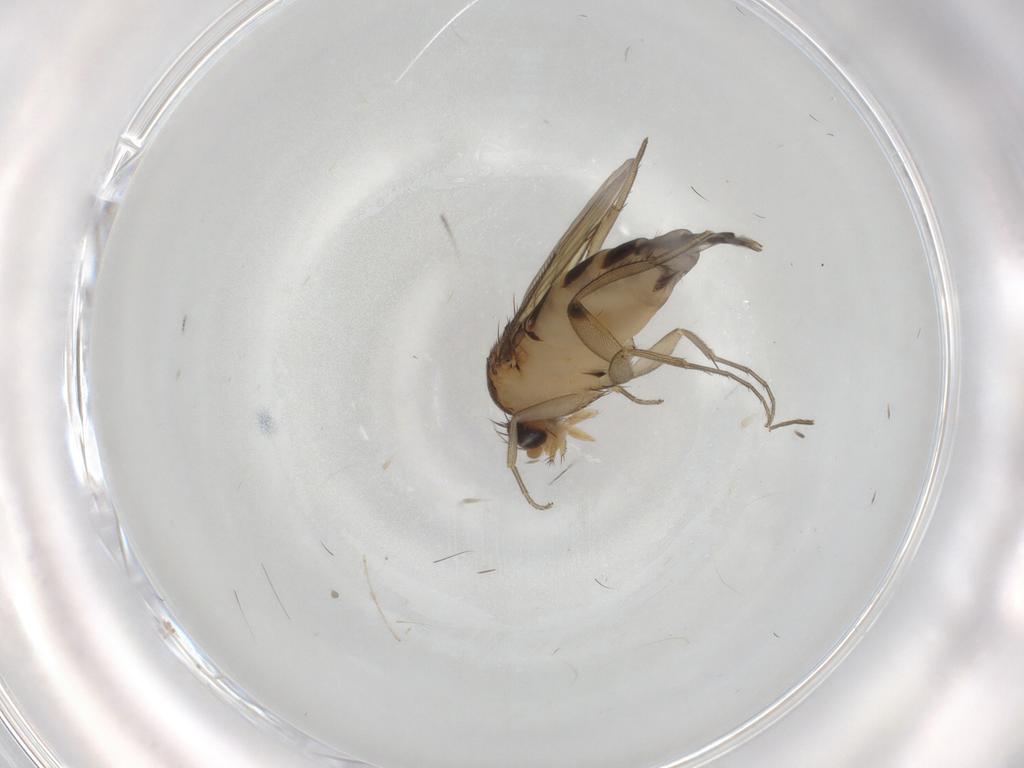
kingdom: Animalia
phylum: Arthropoda
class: Insecta
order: Diptera
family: Phoridae
